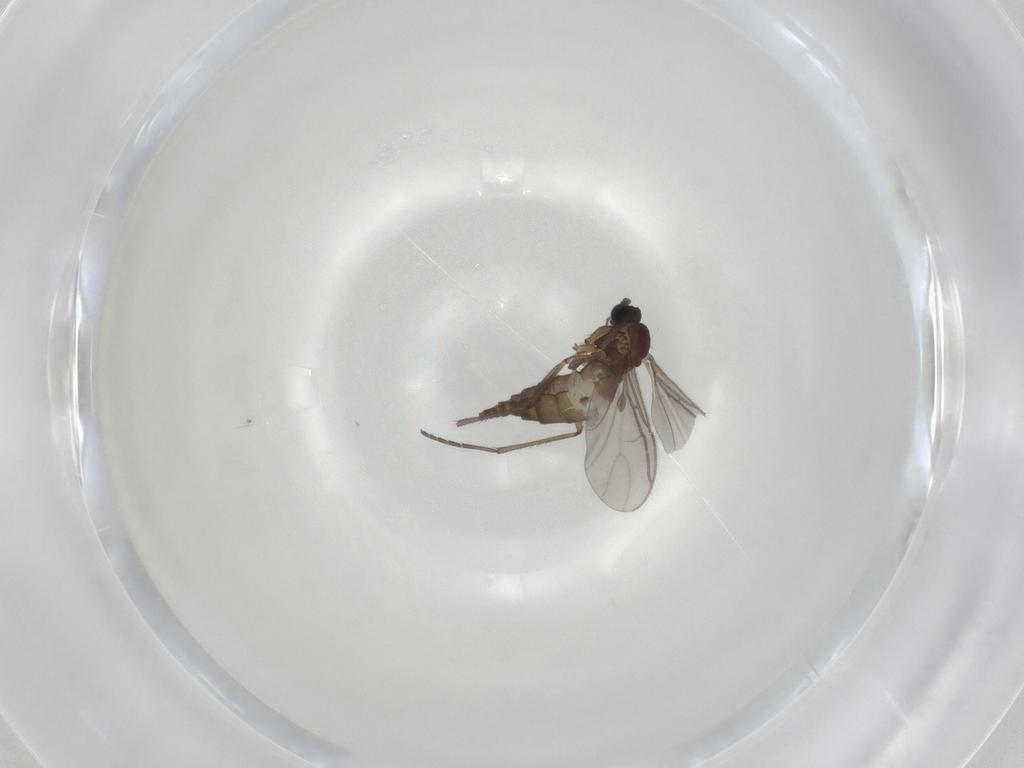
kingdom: Animalia
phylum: Arthropoda
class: Insecta
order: Diptera
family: Sciaridae
